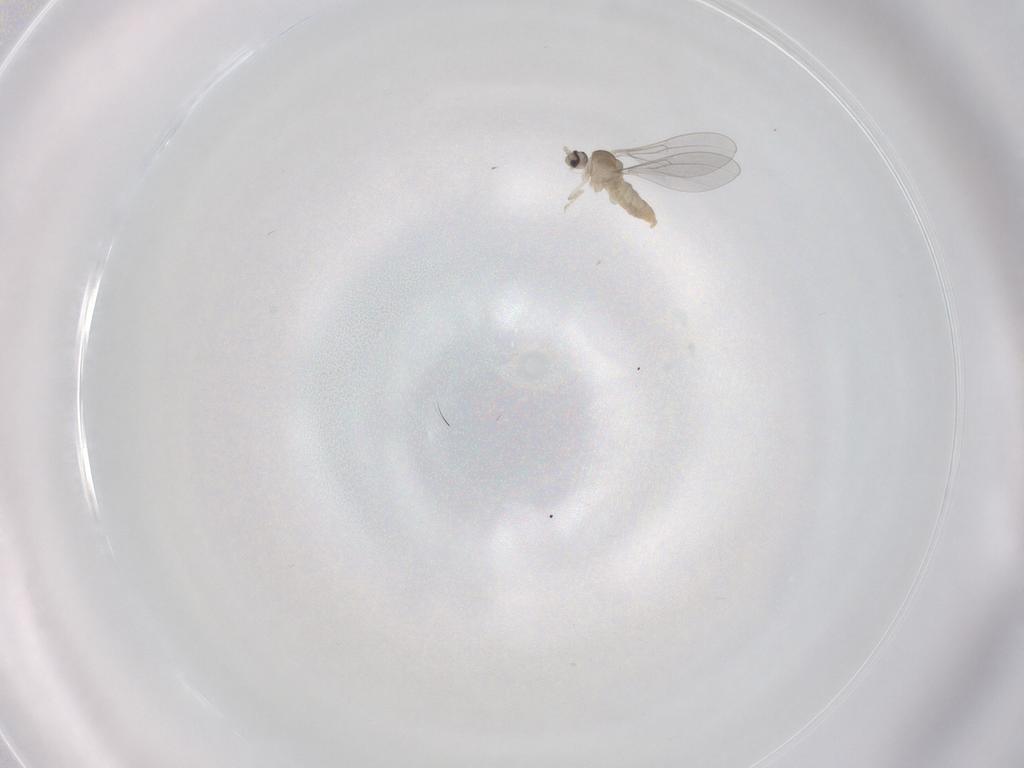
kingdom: Animalia
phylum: Arthropoda
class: Insecta
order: Diptera
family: Cecidomyiidae
